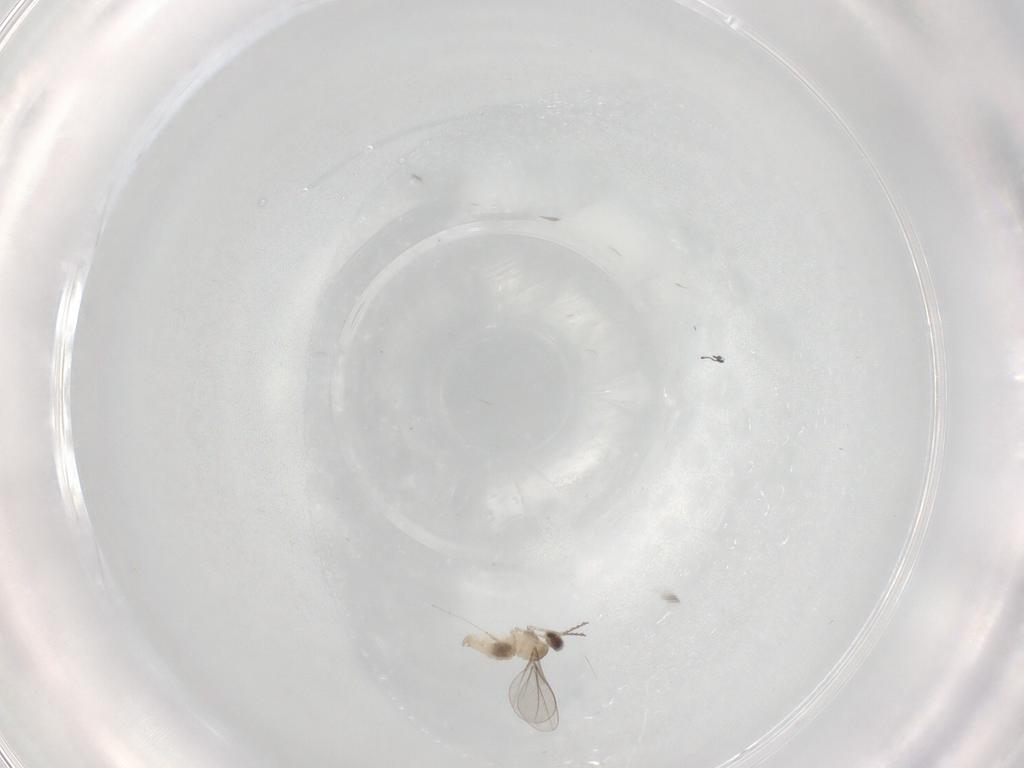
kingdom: Animalia
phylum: Arthropoda
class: Insecta
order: Diptera
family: Cecidomyiidae
